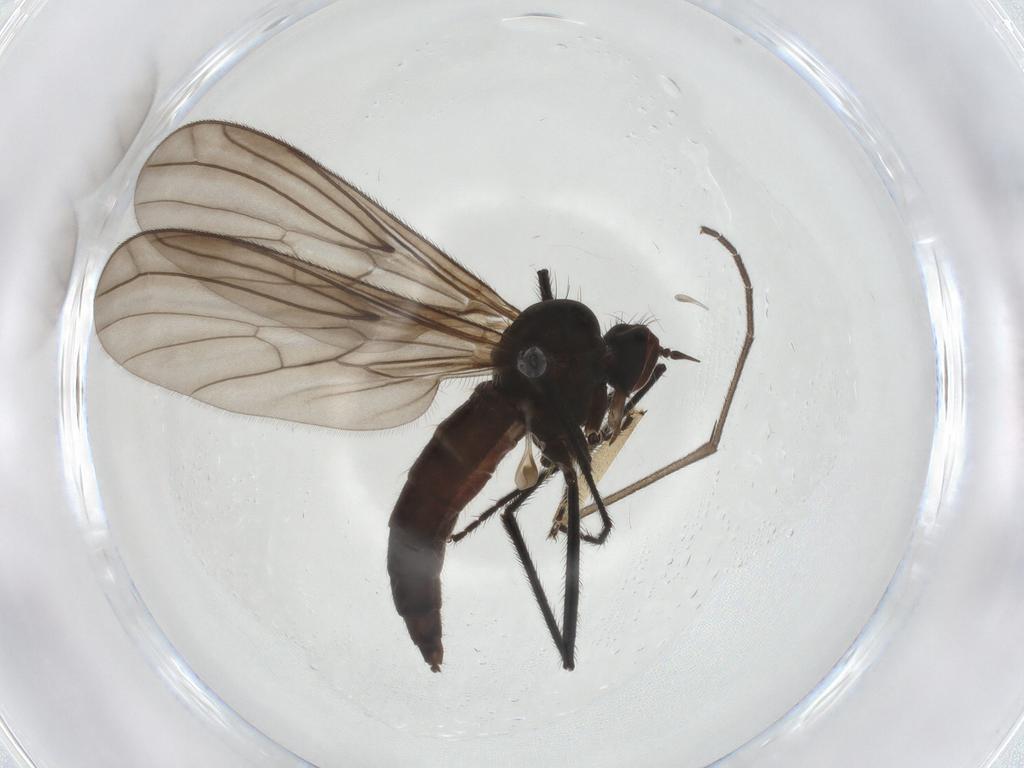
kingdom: Animalia
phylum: Arthropoda
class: Insecta
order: Diptera
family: Empididae
